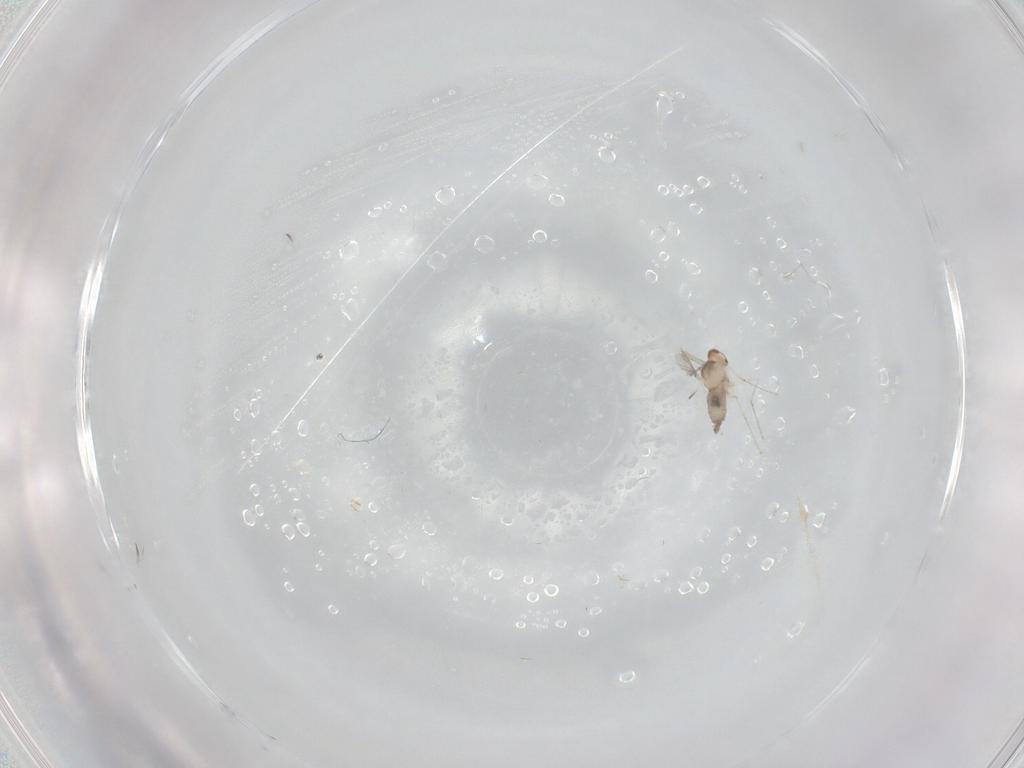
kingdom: Animalia
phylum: Arthropoda
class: Insecta
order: Diptera
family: Cecidomyiidae
